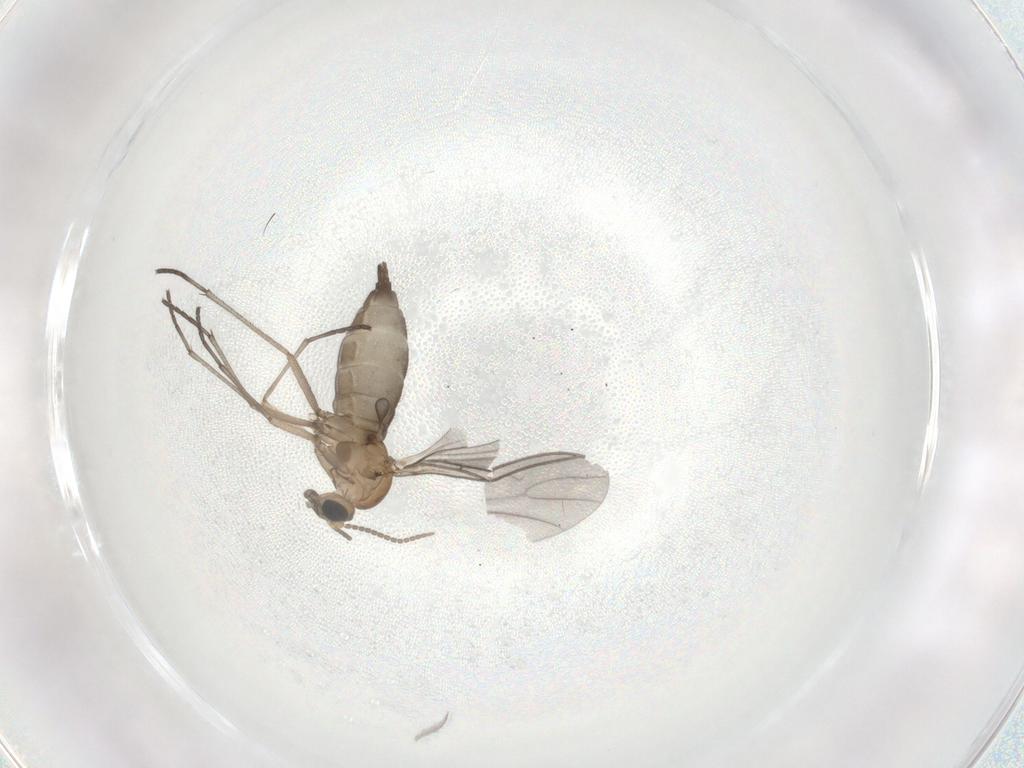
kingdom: Animalia
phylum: Arthropoda
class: Insecta
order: Diptera
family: Sciaridae
